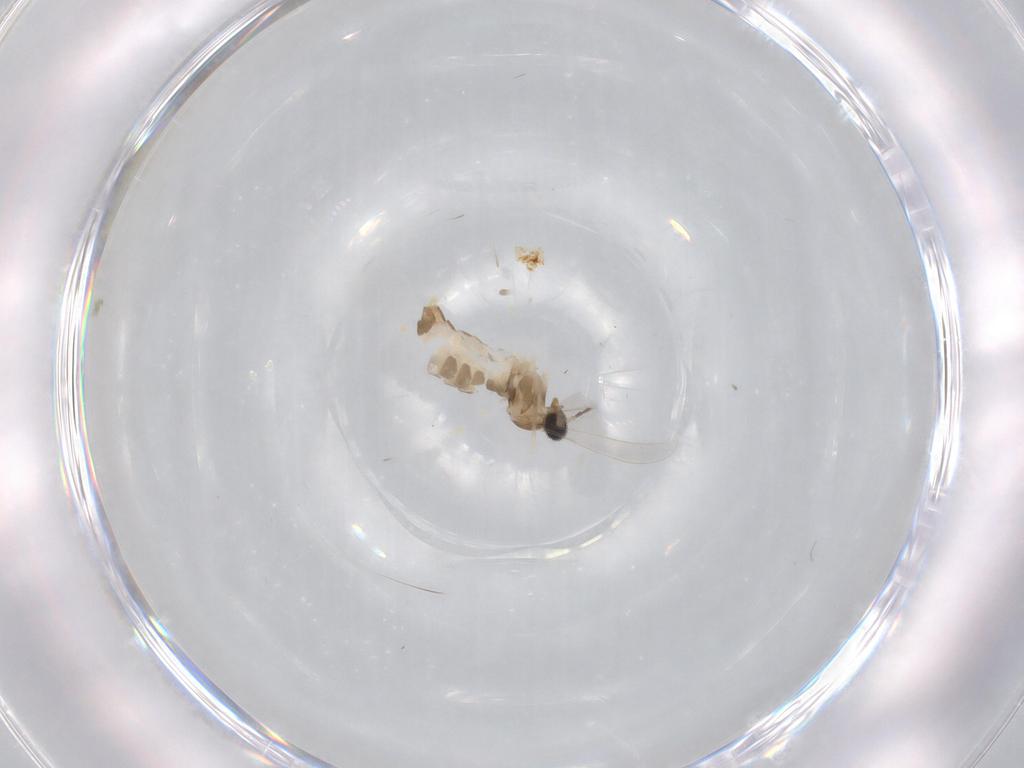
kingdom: Animalia
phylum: Arthropoda
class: Insecta
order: Diptera
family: Cecidomyiidae
